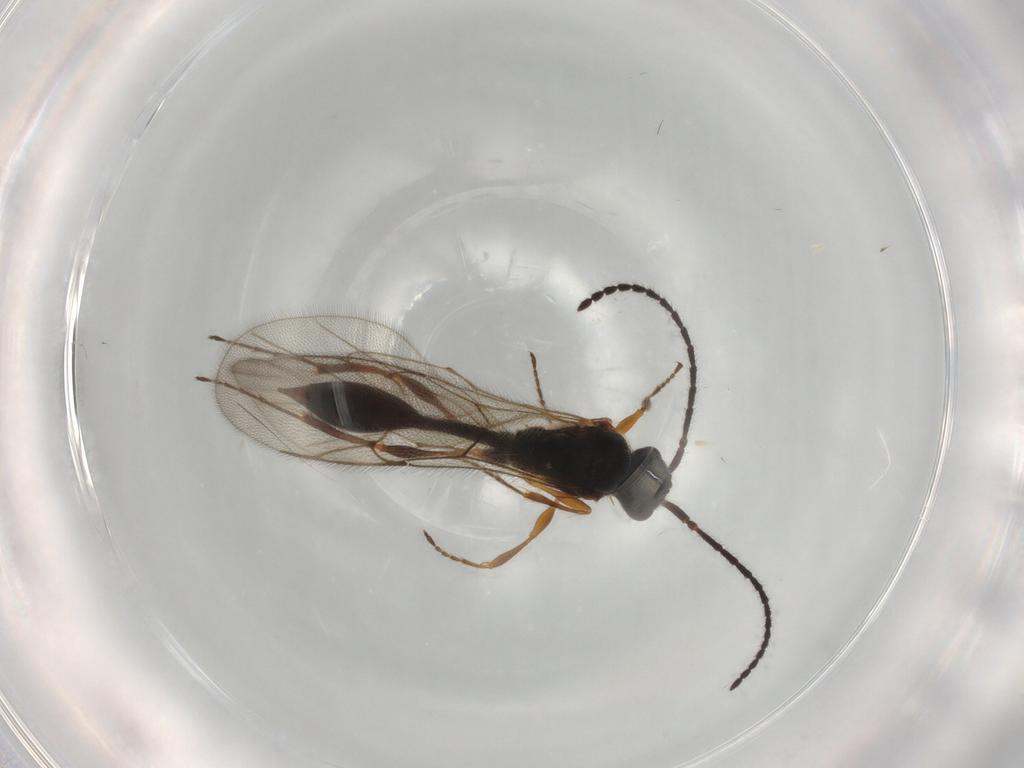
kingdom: Animalia
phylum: Arthropoda
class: Insecta
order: Hymenoptera
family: Diapriidae
